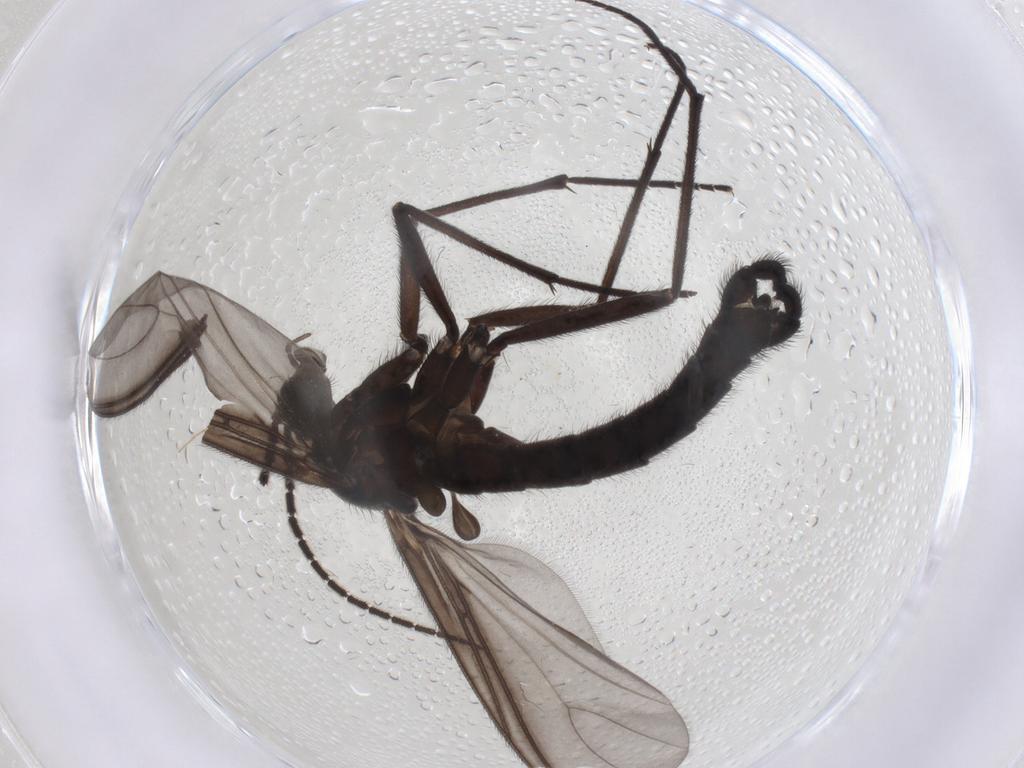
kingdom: Animalia
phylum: Arthropoda
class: Insecta
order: Diptera
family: Chironomidae
